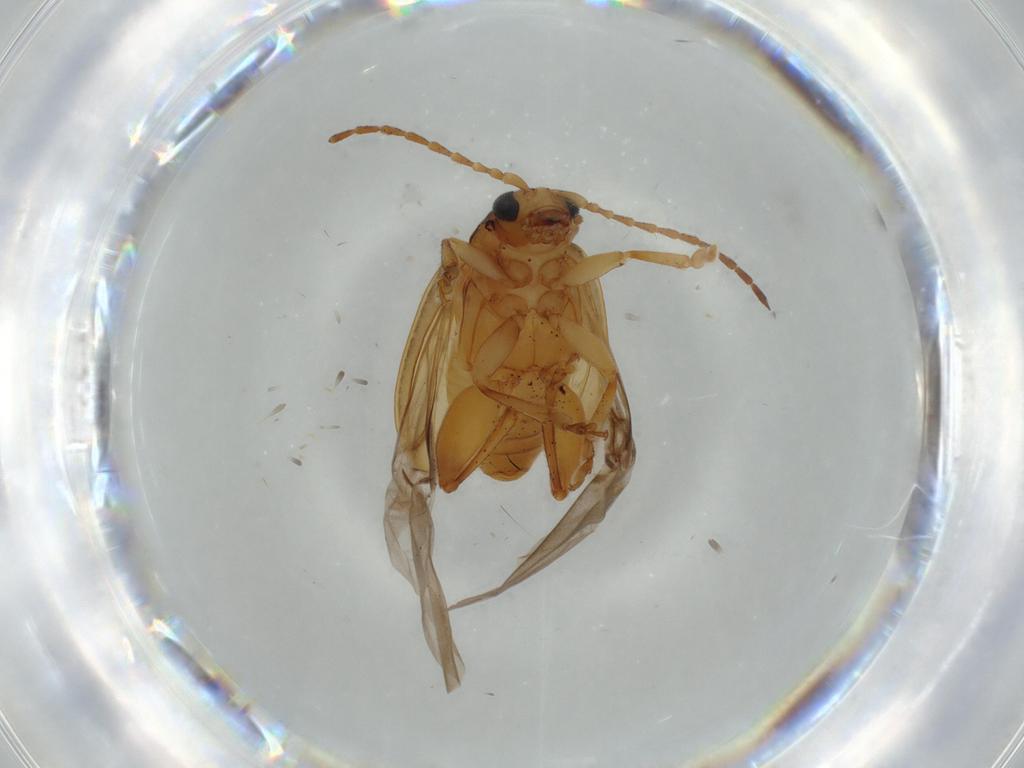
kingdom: Animalia
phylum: Arthropoda
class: Insecta
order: Coleoptera
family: Chrysomelidae
